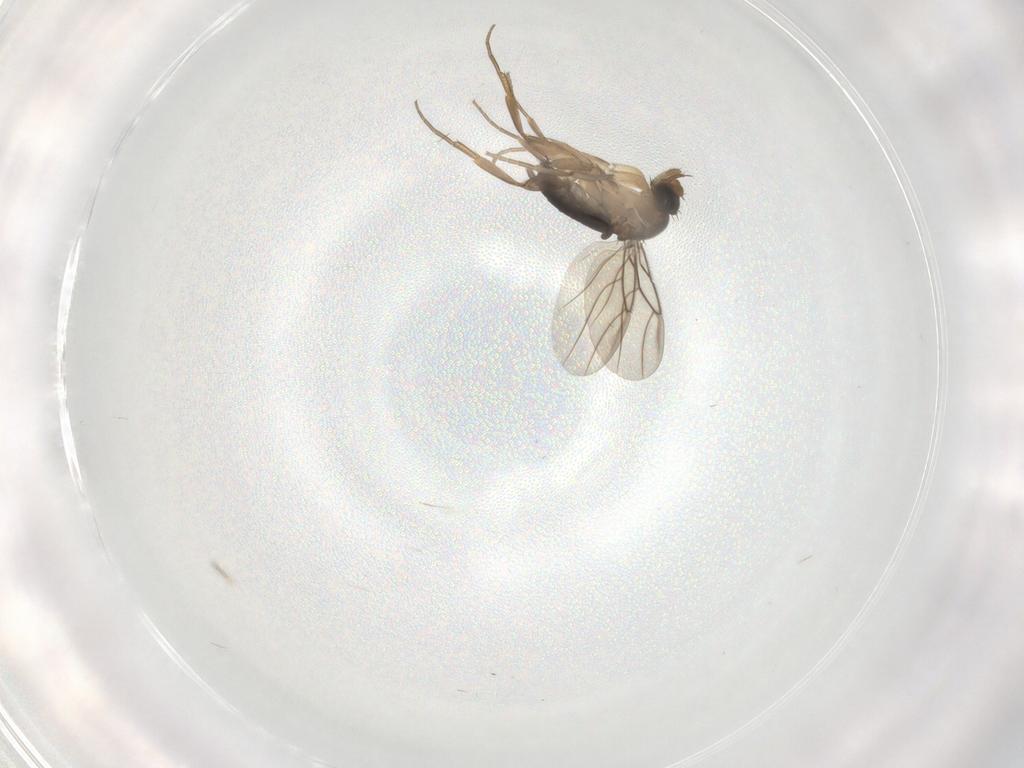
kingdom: Animalia
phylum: Arthropoda
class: Insecta
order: Diptera
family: Phoridae
